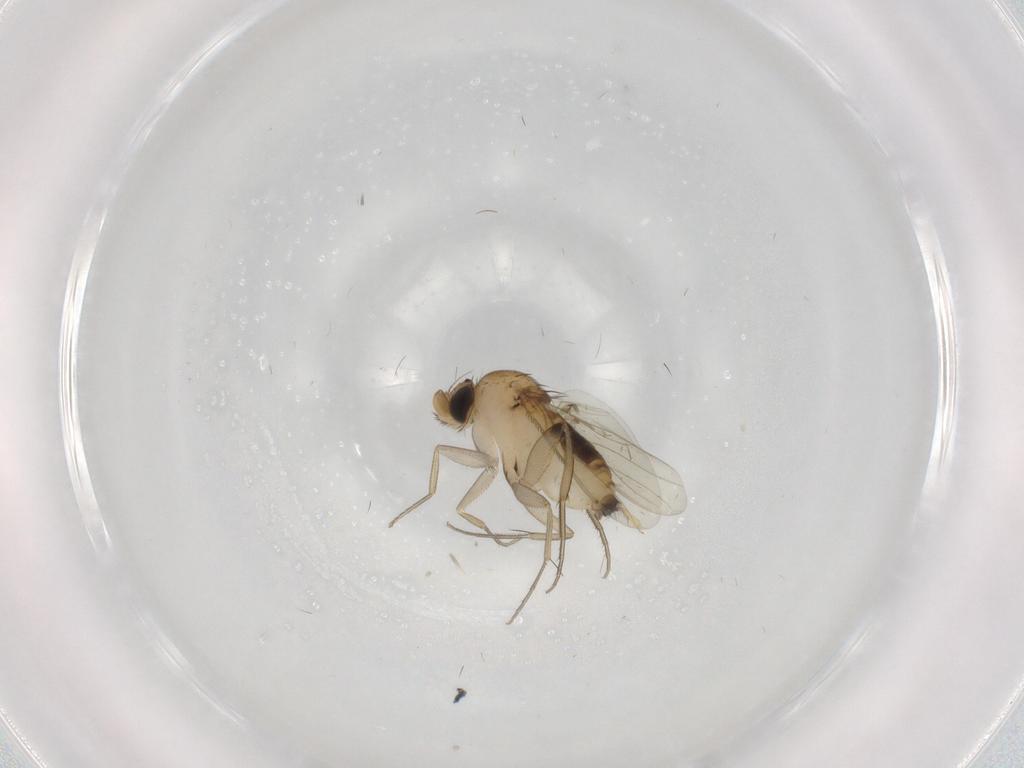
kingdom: Animalia
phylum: Arthropoda
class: Insecta
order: Diptera
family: Phoridae
